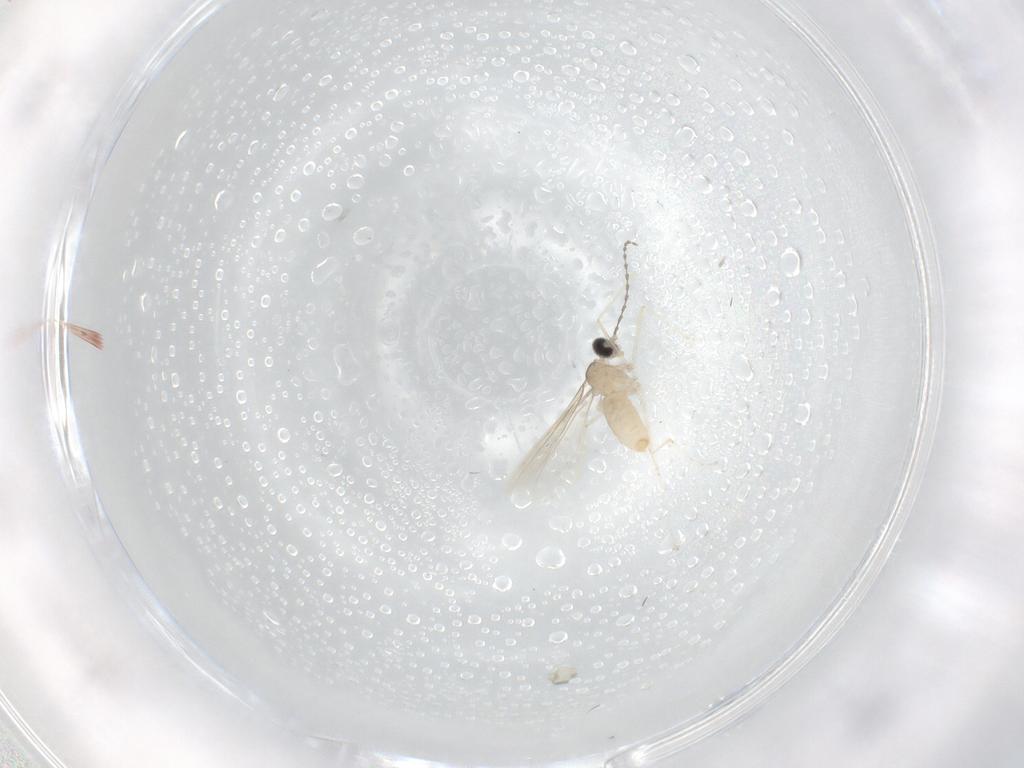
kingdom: Animalia
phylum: Arthropoda
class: Insecta
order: Diptera
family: Cecidomyiidae
